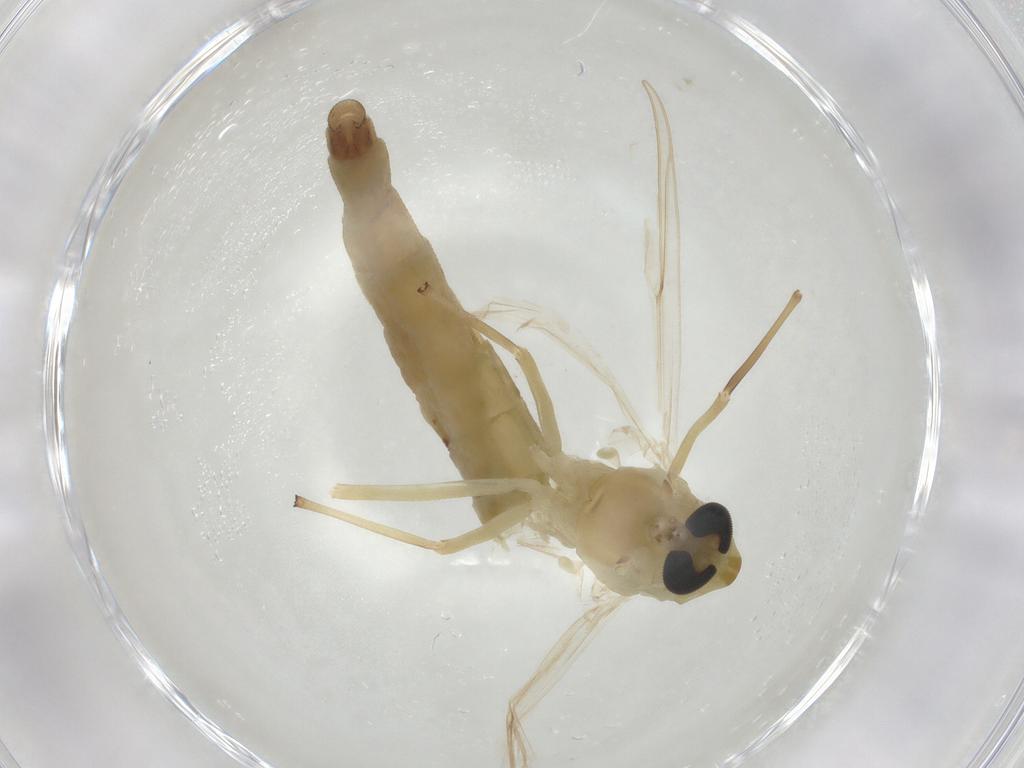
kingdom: Animalia
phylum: Arthropoda
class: Insecta
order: Diptera
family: Chironomidae
